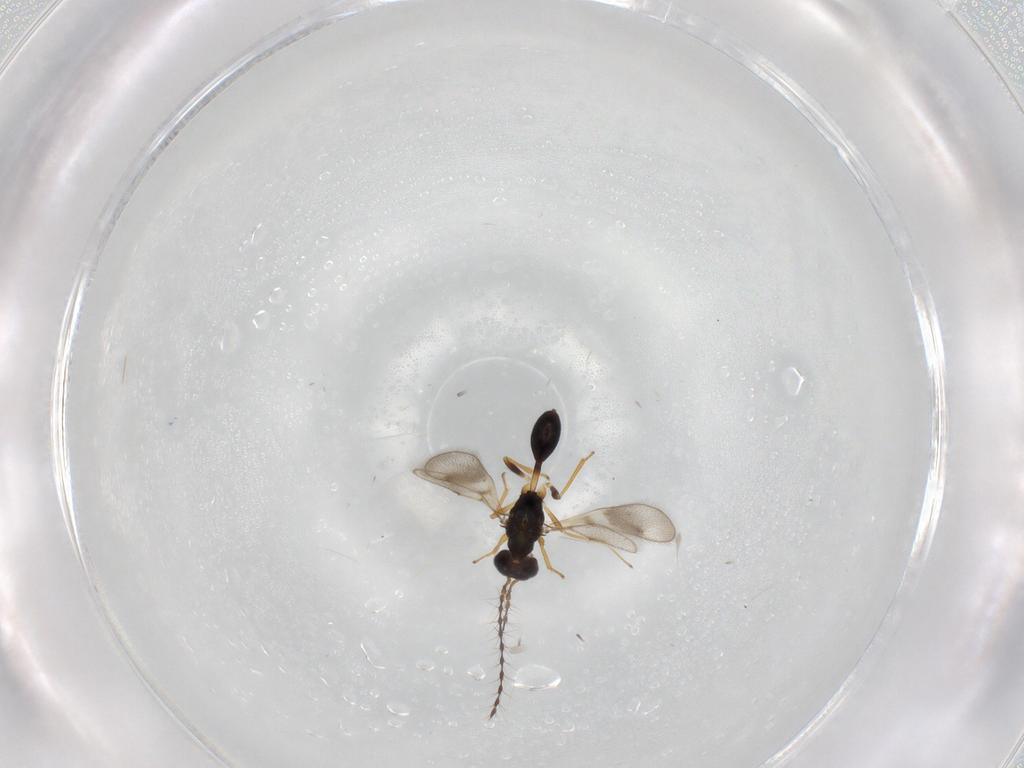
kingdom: Animalia
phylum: Arthropoda
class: Insecta
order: Hymenoptera
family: Diparidae
